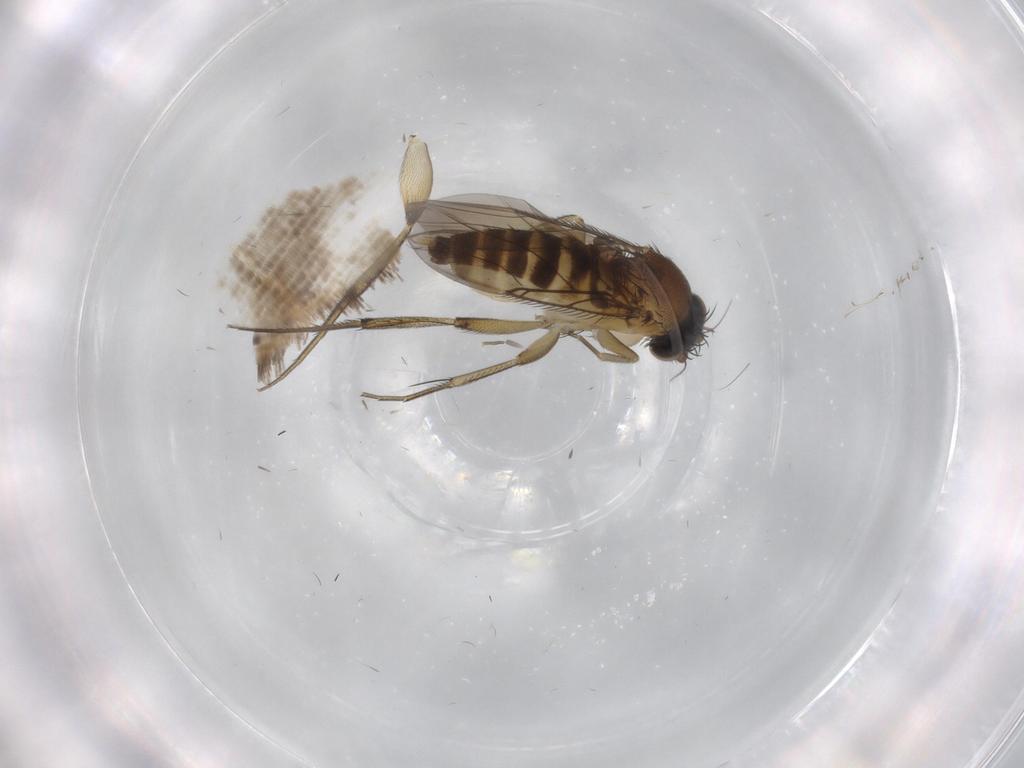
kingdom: Animalia
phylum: Arthropoda
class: Insecta
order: Diptera
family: Phoridae
